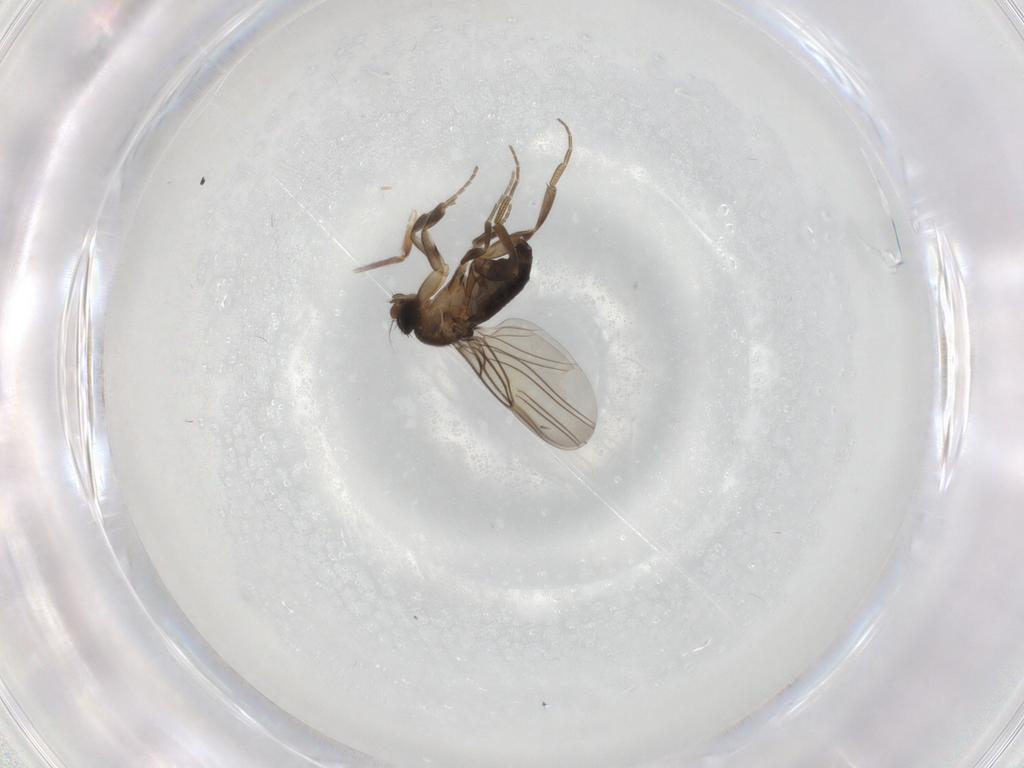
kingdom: Animalia
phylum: Arthropoda
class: Insecta
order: Diptera
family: Phoridae
